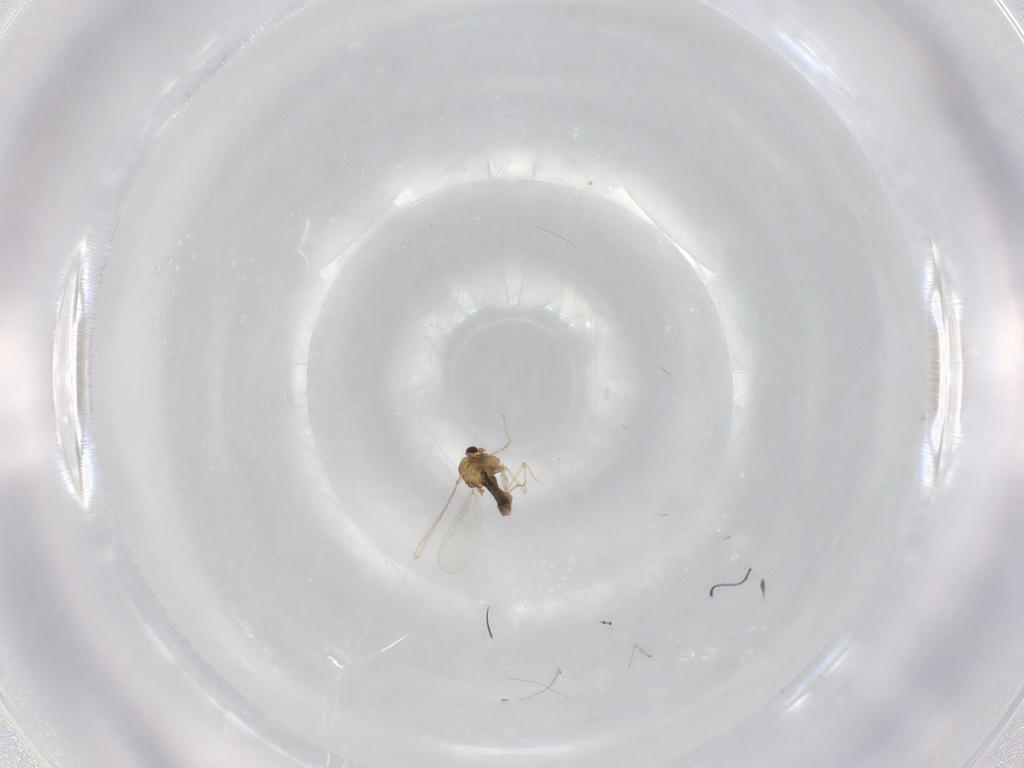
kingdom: Animalia
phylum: Arthropoda
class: Insecta
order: Diptera
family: Chironomidae
